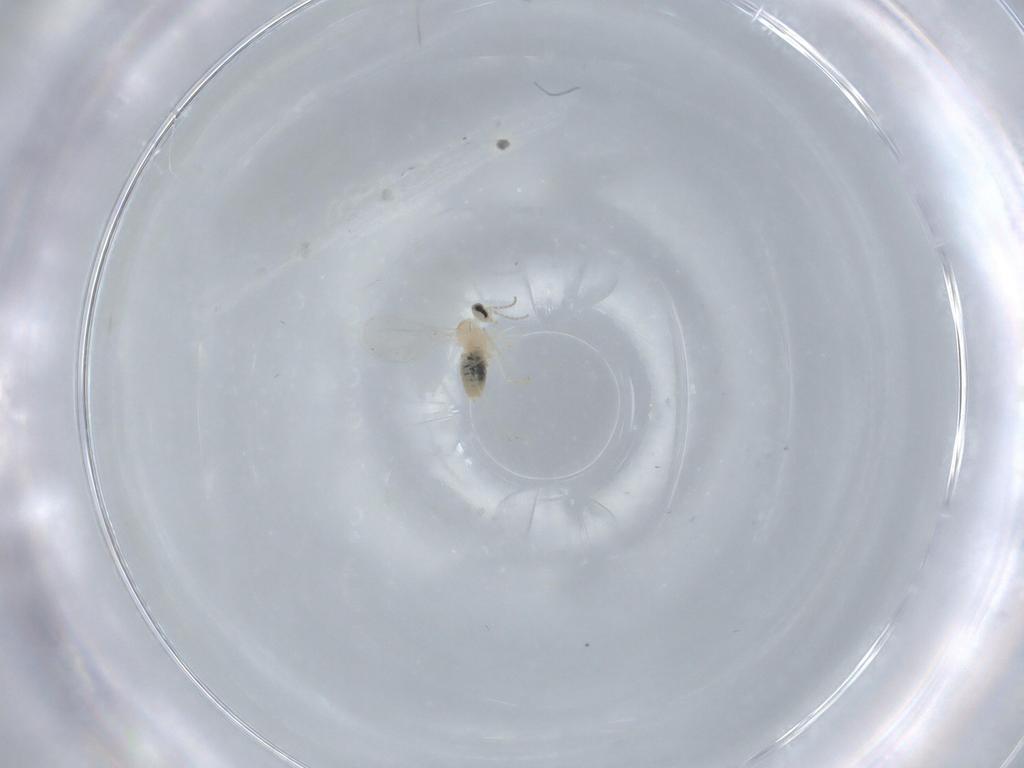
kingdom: Animalia
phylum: Arthropoda
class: Insecta
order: Diptera
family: Cecidomyiidae
